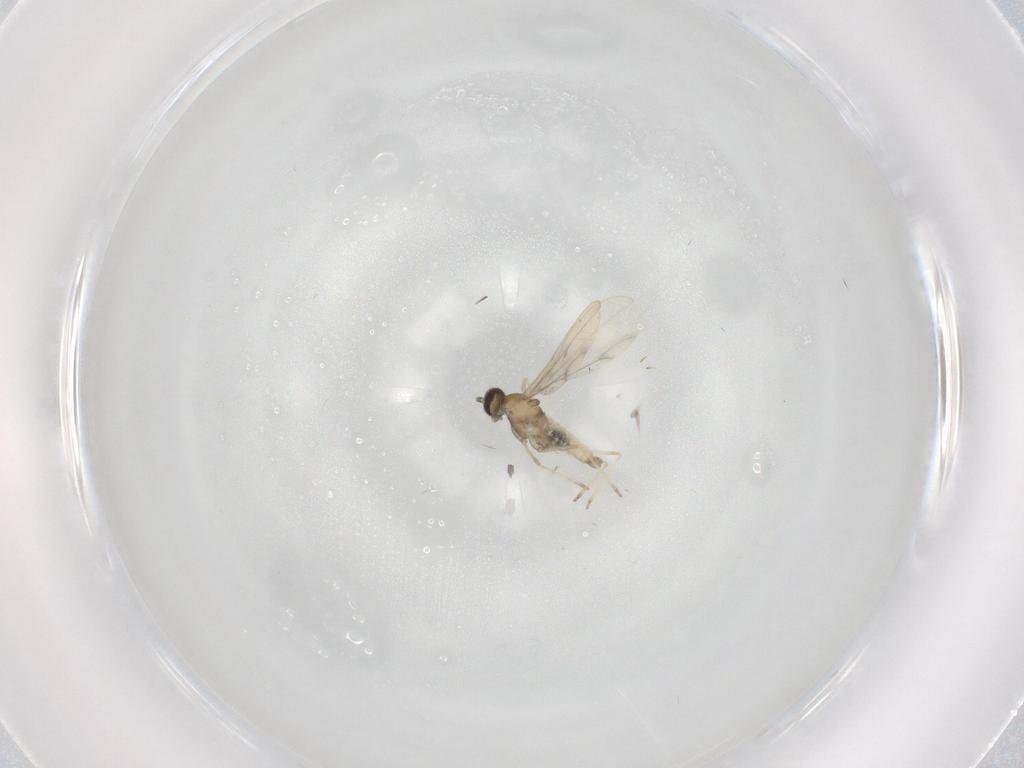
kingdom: Animalia
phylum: Arthropoda
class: Insecta
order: Diptera
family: Cecidomyiidae
